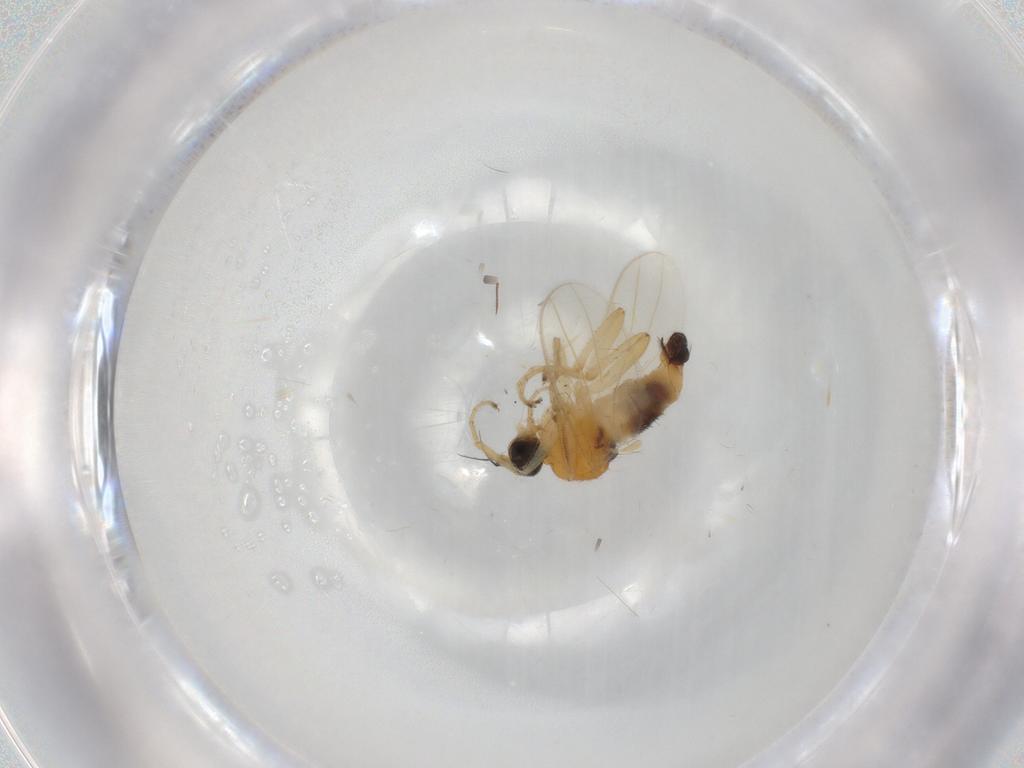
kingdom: Animalia
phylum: Arthropoda
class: Insecta
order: Diptera
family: Hybotidae
